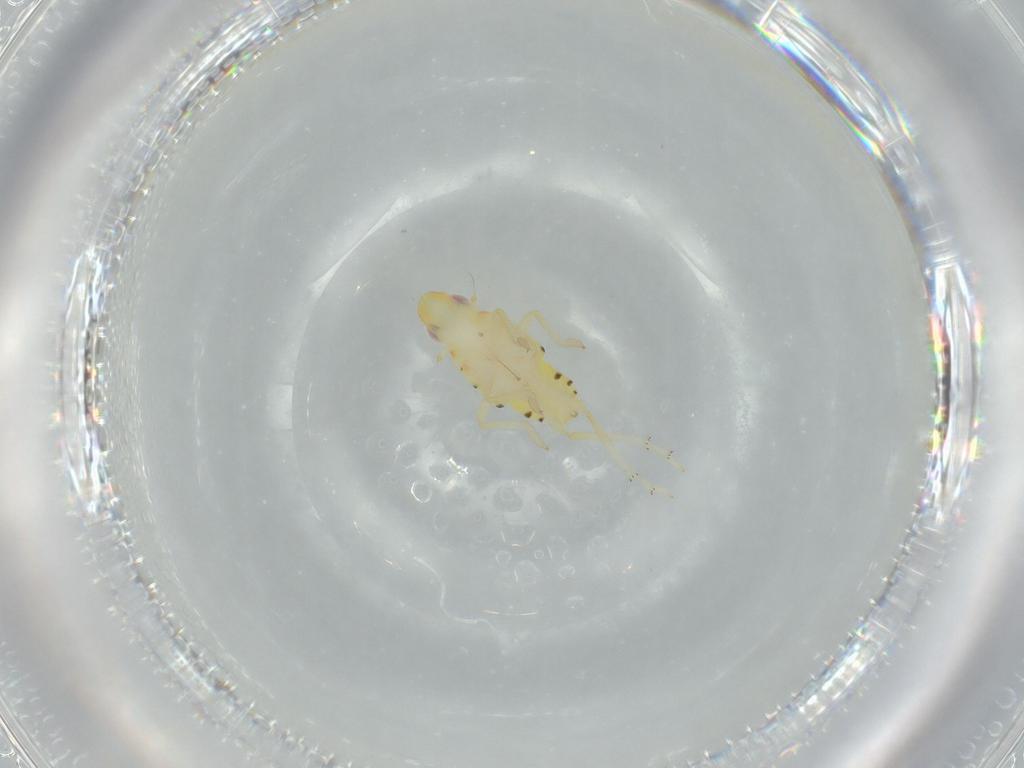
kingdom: Animalia
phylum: Arthropoda
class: Insecta
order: Hemiptera
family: Tropiduchidae
